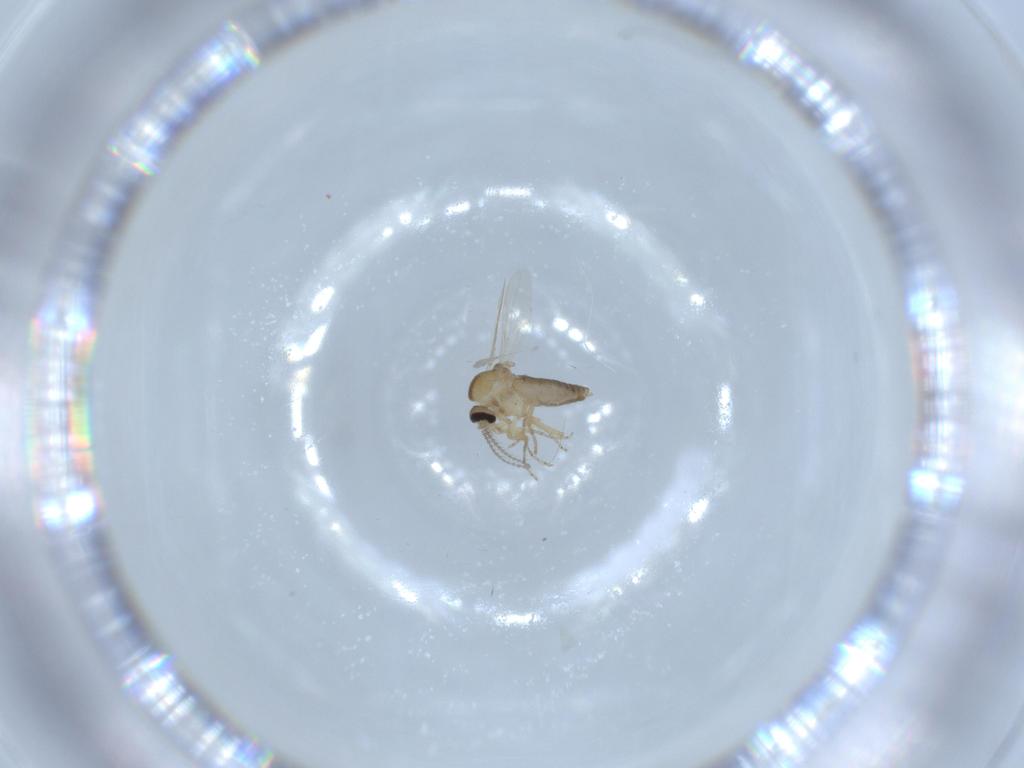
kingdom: Animalia
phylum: Arthropoda
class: Insecta
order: Diptera
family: Ceratopogonidae
